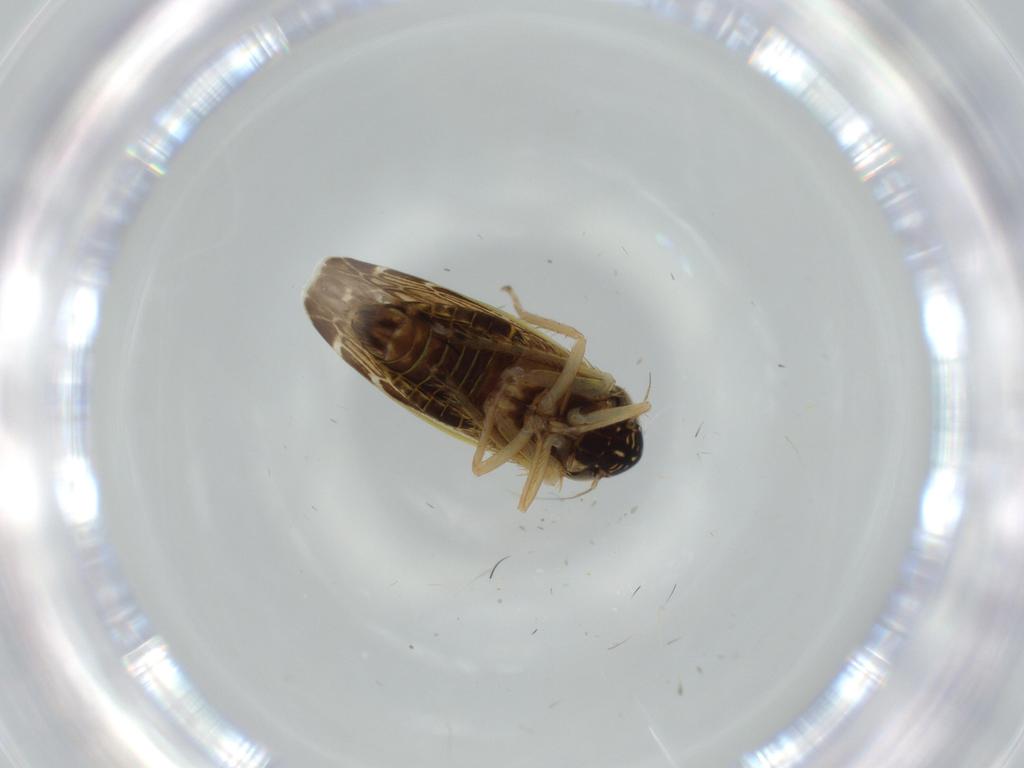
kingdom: Animalia
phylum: Arthropoda
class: Insecta
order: Hemiptera
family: Cicadellidae
